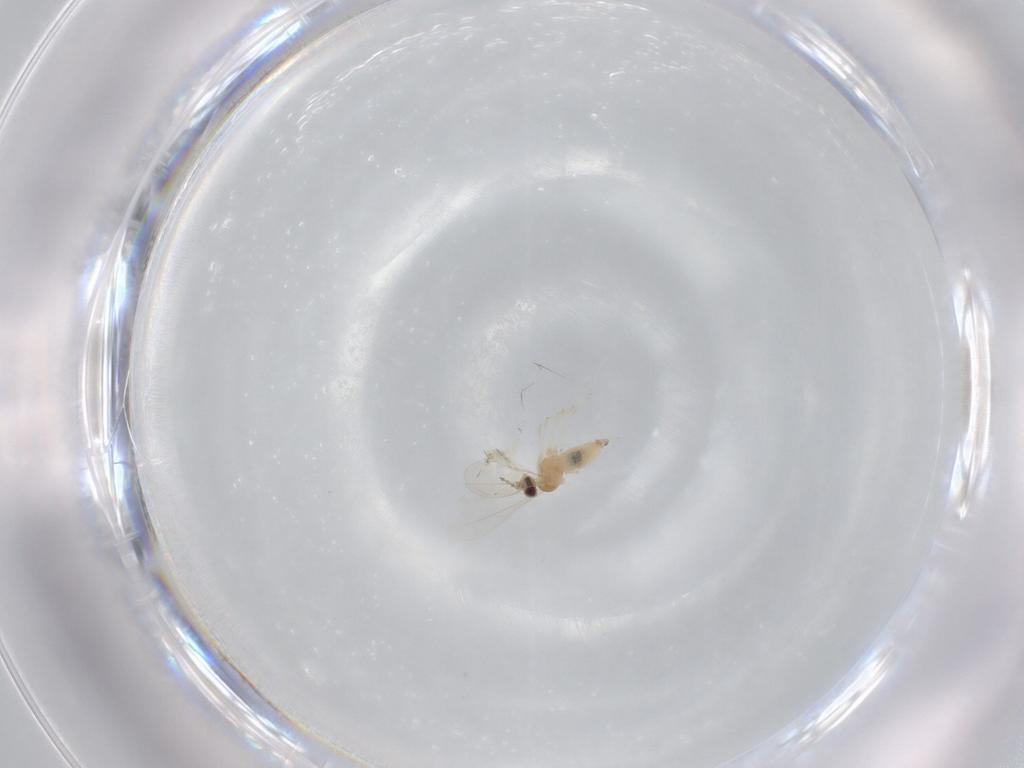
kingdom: Animalia
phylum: Arthropoda
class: Insecta
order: Diptera
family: Cecidomyiidae
